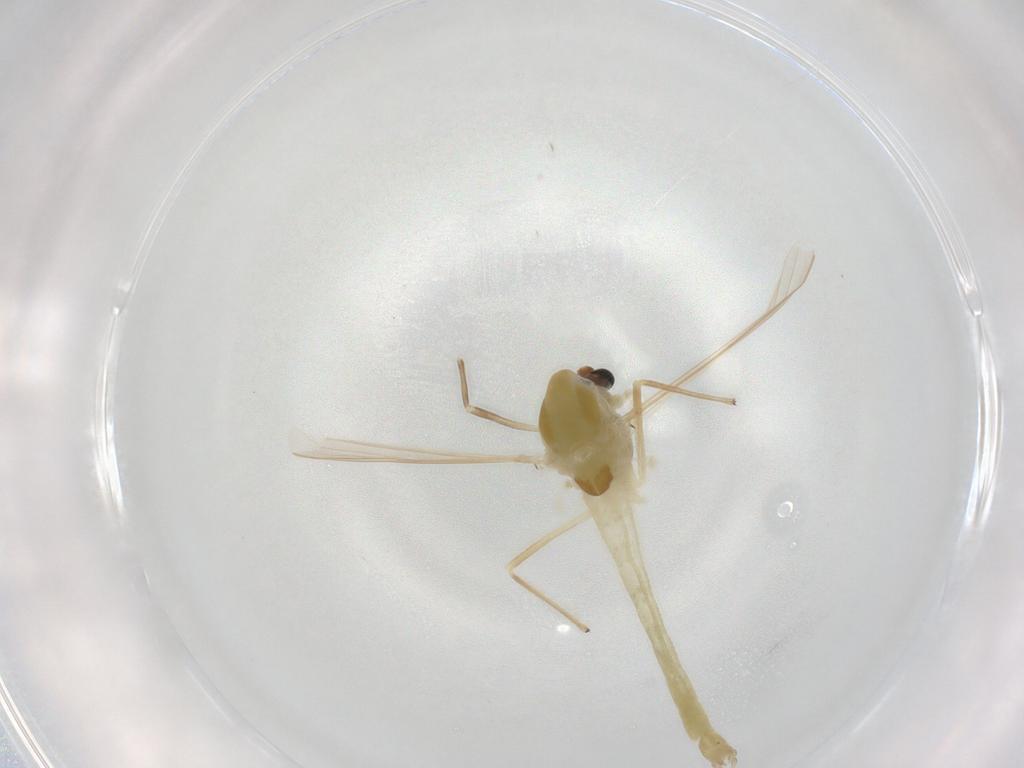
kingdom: Animalia
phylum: Arthropoda
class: Insecta
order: Diptera
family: Chironomidae
